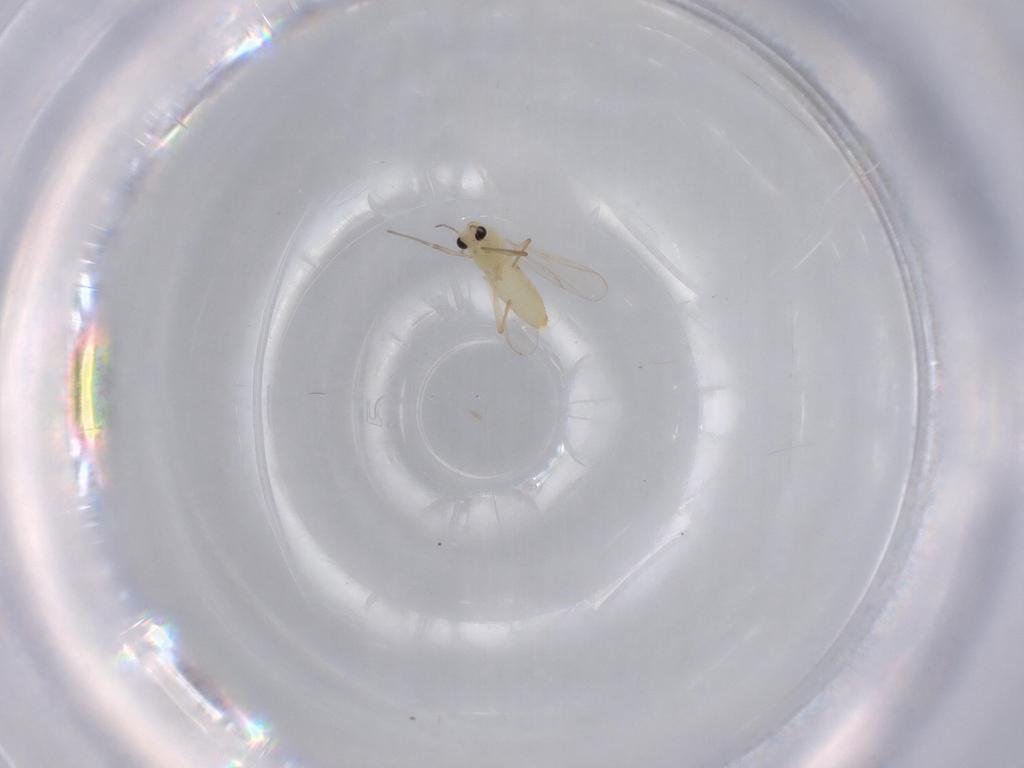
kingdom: Animalia
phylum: Arthropoda
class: Insecta
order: Diptera
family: Chironomidae
